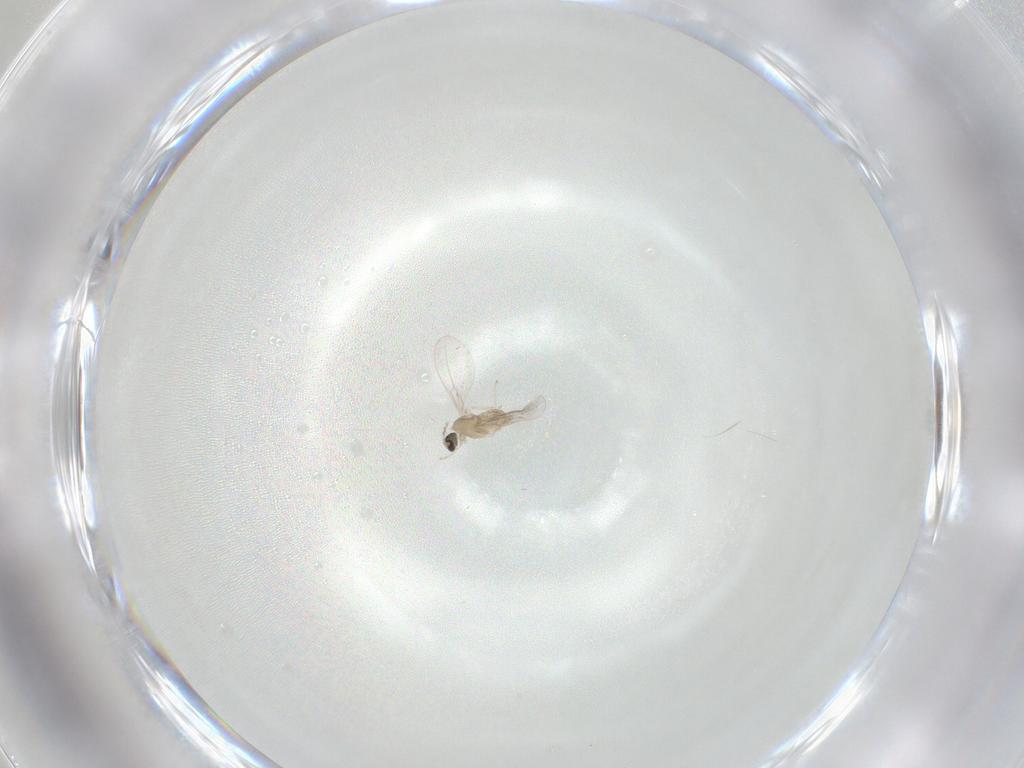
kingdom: Animalia
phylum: Arthropoda
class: Insecta
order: Diptera
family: Cecidomyiidae
